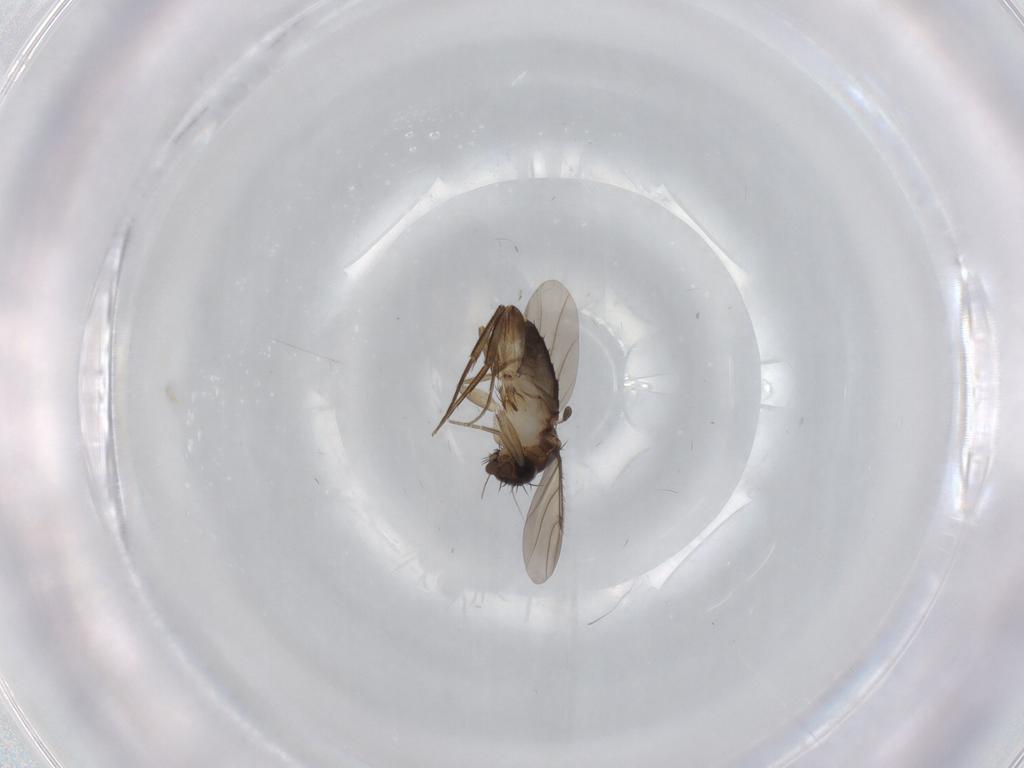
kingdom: Animalia
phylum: Arthropoda
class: Insecta
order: Diptera
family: Phoridae
